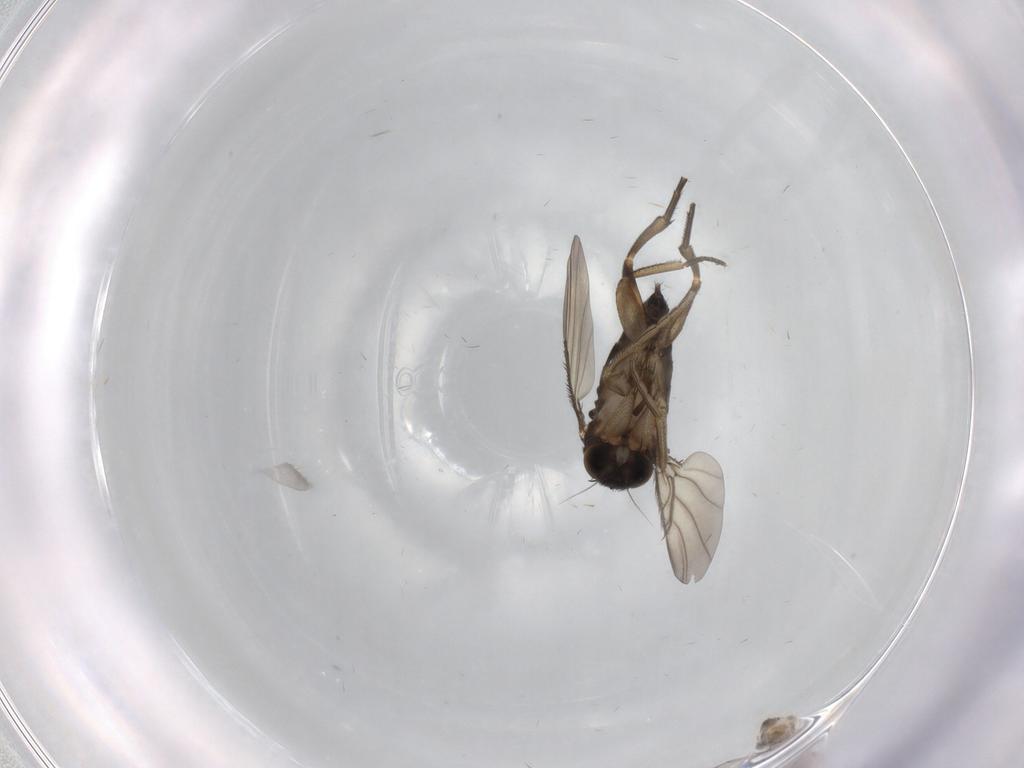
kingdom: Animalia
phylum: Arthropoda
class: Insecta
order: Diptera
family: Phoridae
